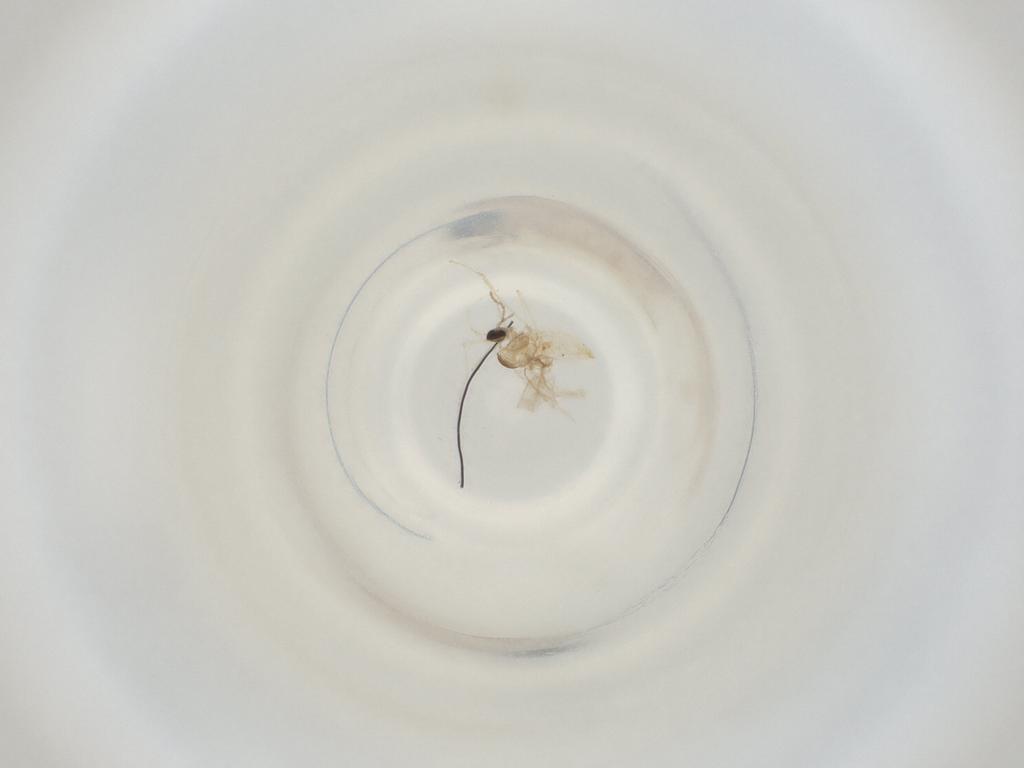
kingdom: Animalia
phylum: Arthropoda
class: Insecta
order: Diptera
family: Cecidomyiidae
